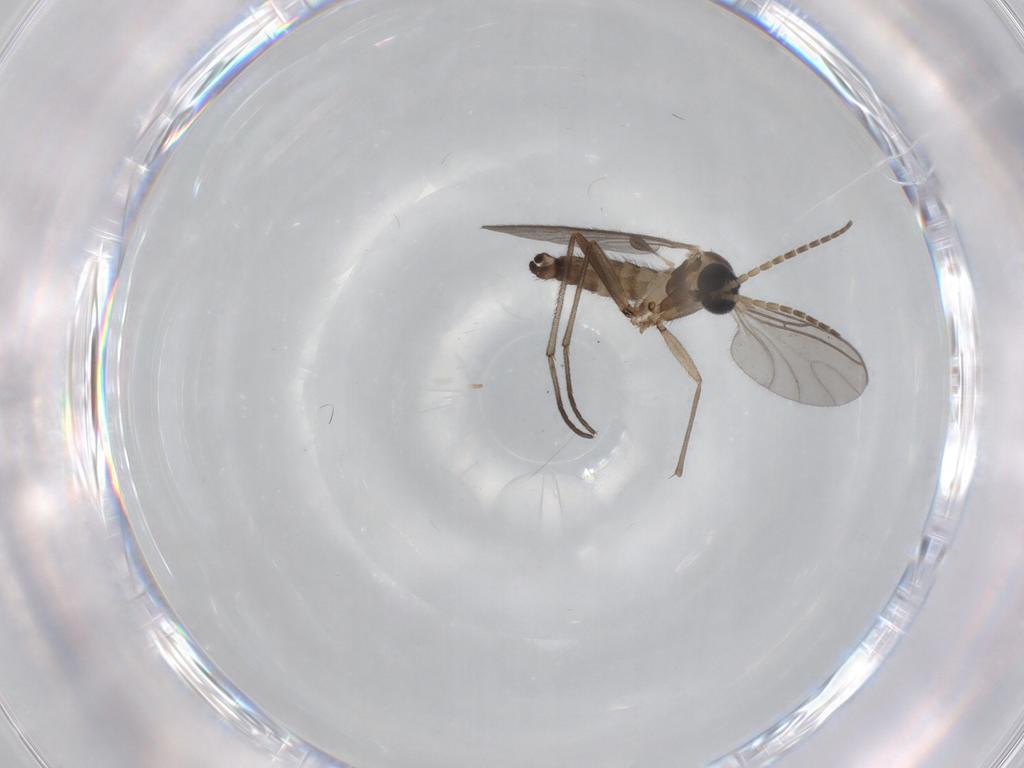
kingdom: Animalia
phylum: Arthropoda
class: Insecta
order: Diptera
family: Sciaridae
